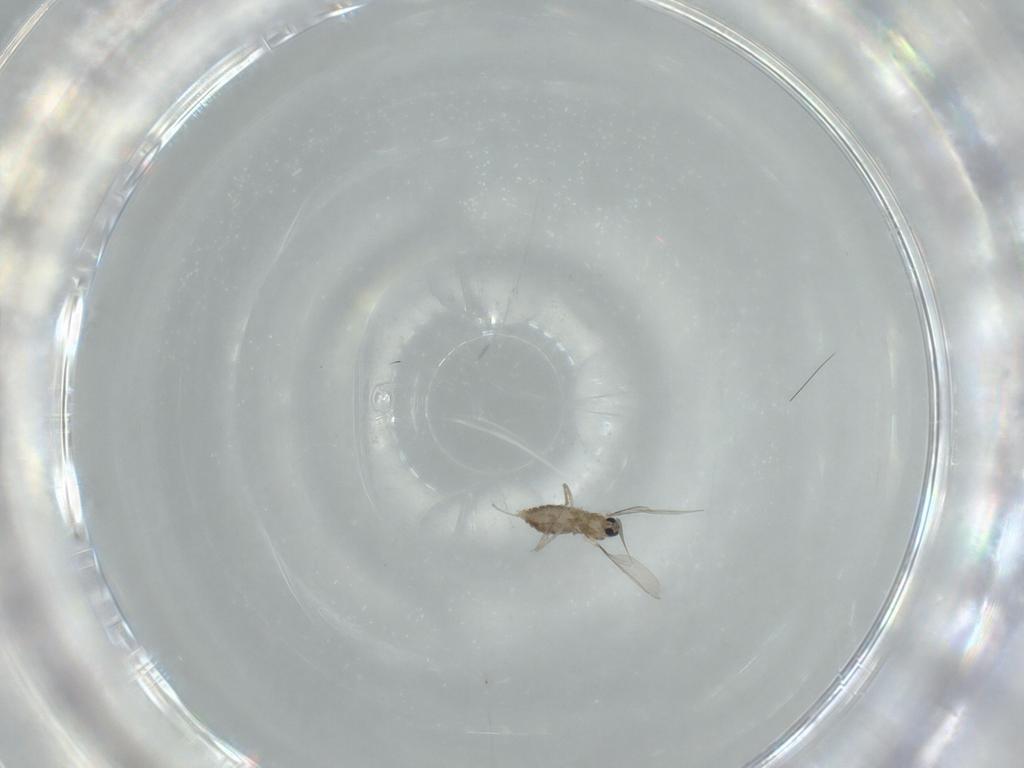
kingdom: Animalia
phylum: Arthropoda
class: Insecta
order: Diptera
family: Cecidomyiidae
